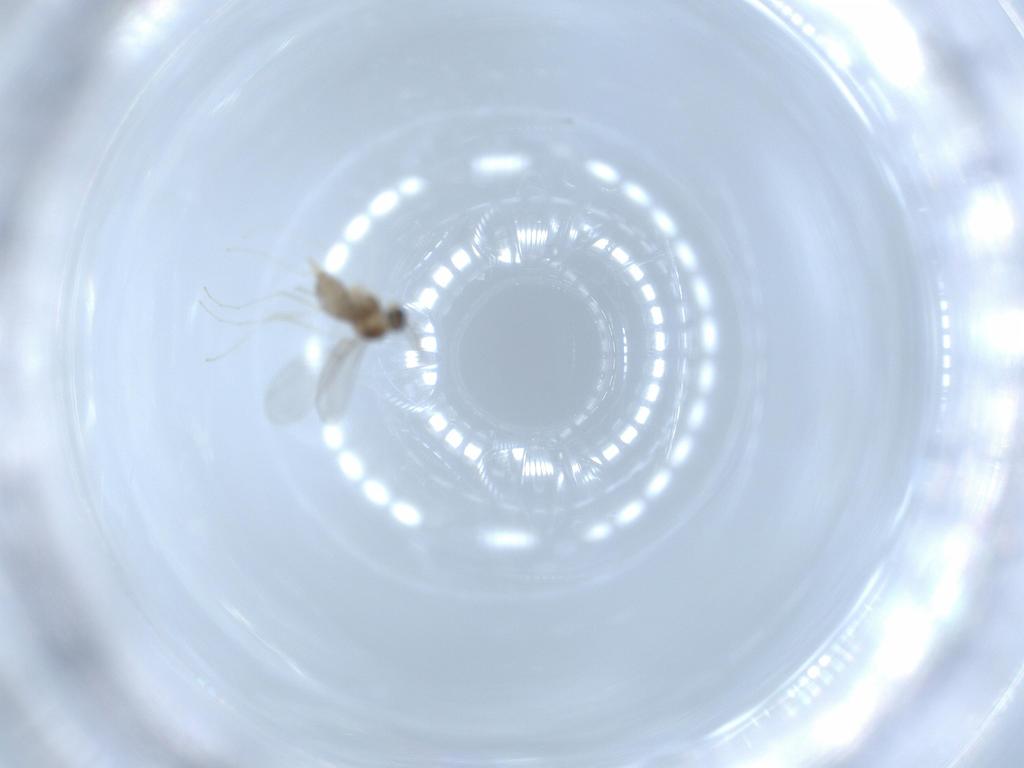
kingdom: Animalia
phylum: Arthropoda
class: Insecta
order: Diptera
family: Cecidomyiidae
